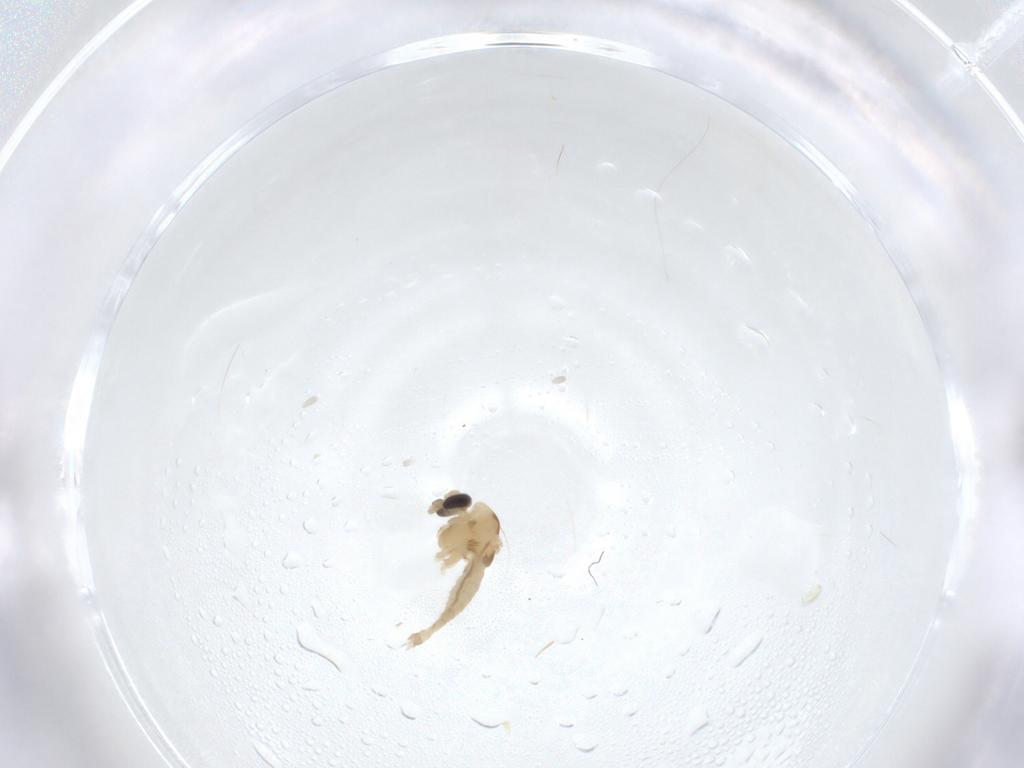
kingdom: Animalia
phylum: Arthropoda
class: Insecta
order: Diptera
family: Chironomidae
